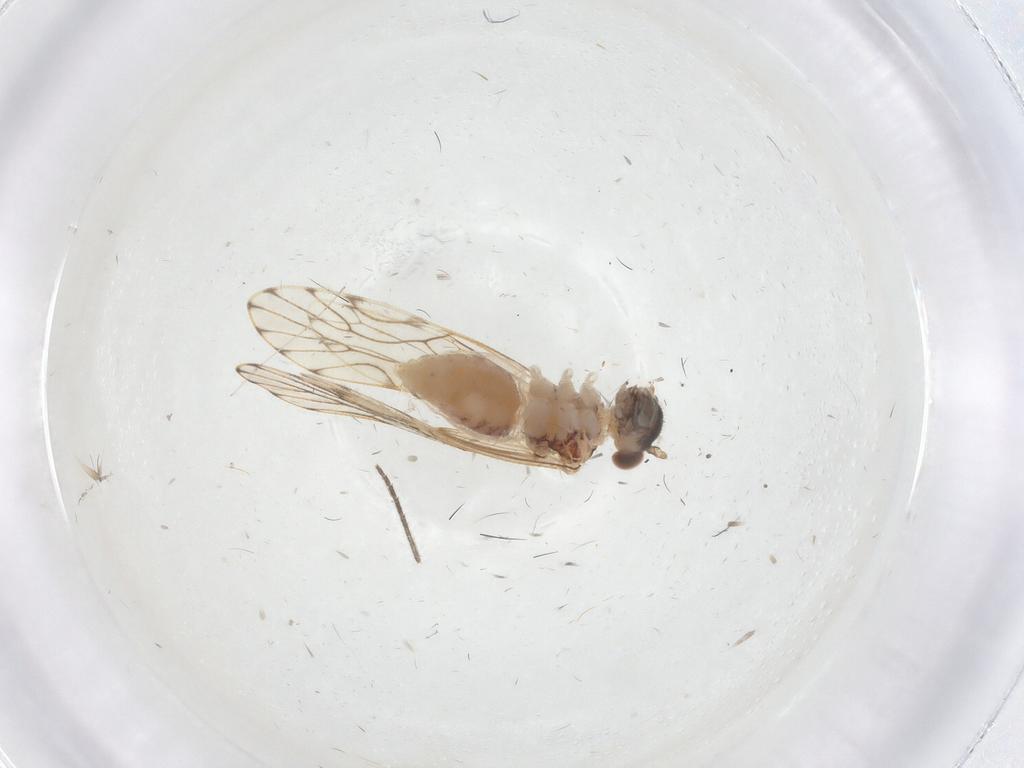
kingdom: Animalia
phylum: Arthropoda
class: Insecta
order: Psocodea
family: Epipsocidae
